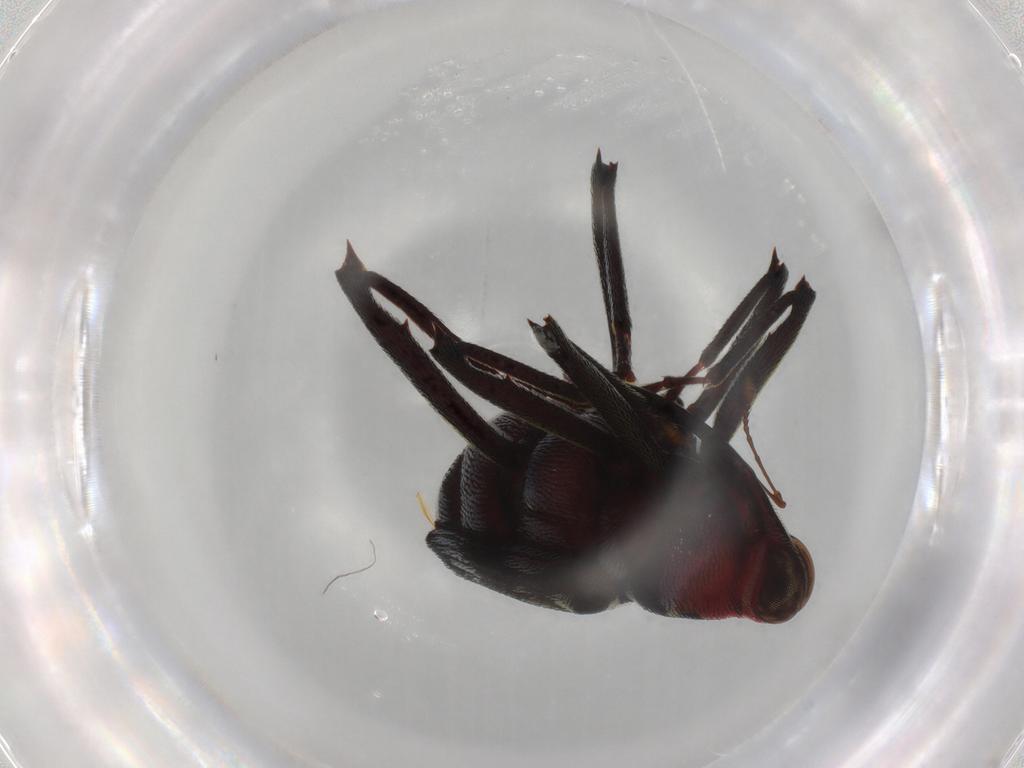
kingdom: Animalia
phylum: Arthropoda
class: Insecta
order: Coleoptera
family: Curculionidae
